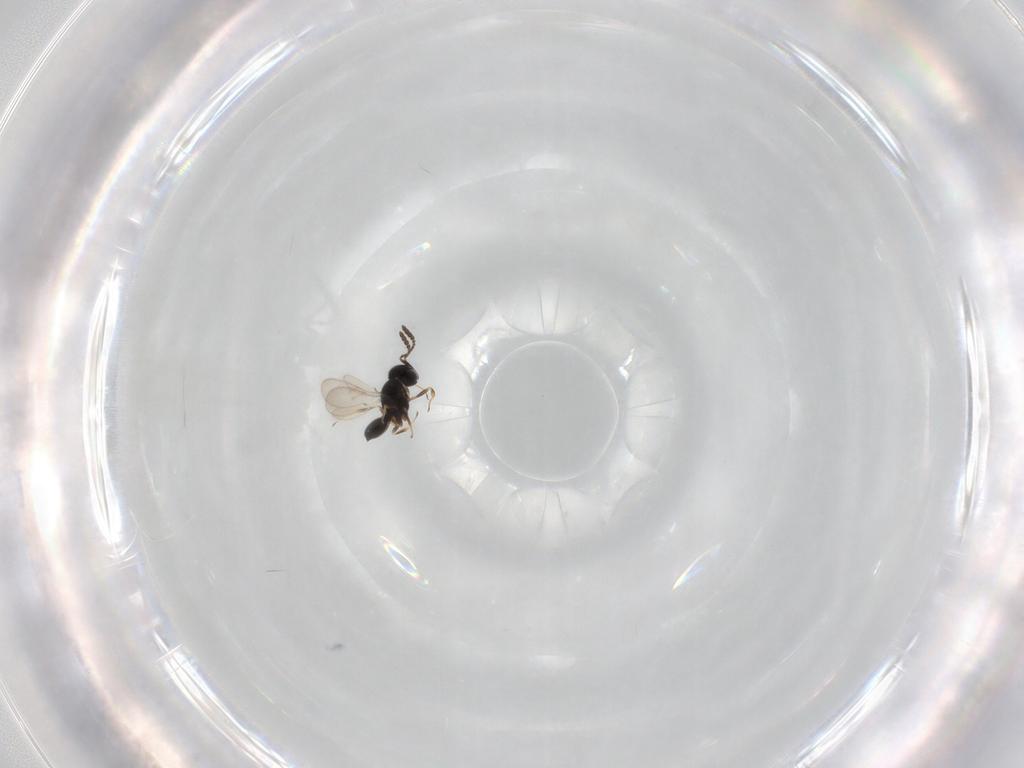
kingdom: Animalia
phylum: Arthropoda
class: Insecta
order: Hymenoptera
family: Scelionidae
